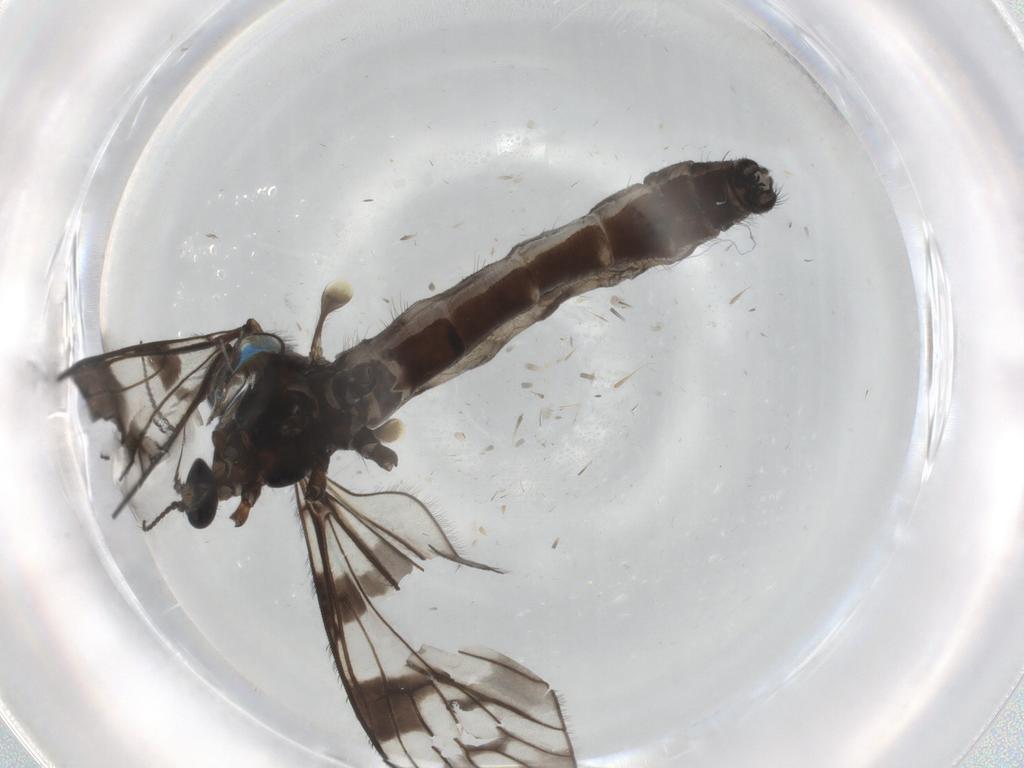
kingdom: Animalia
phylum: Arthropoda
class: Insecta
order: Diptera
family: Limoniidae
